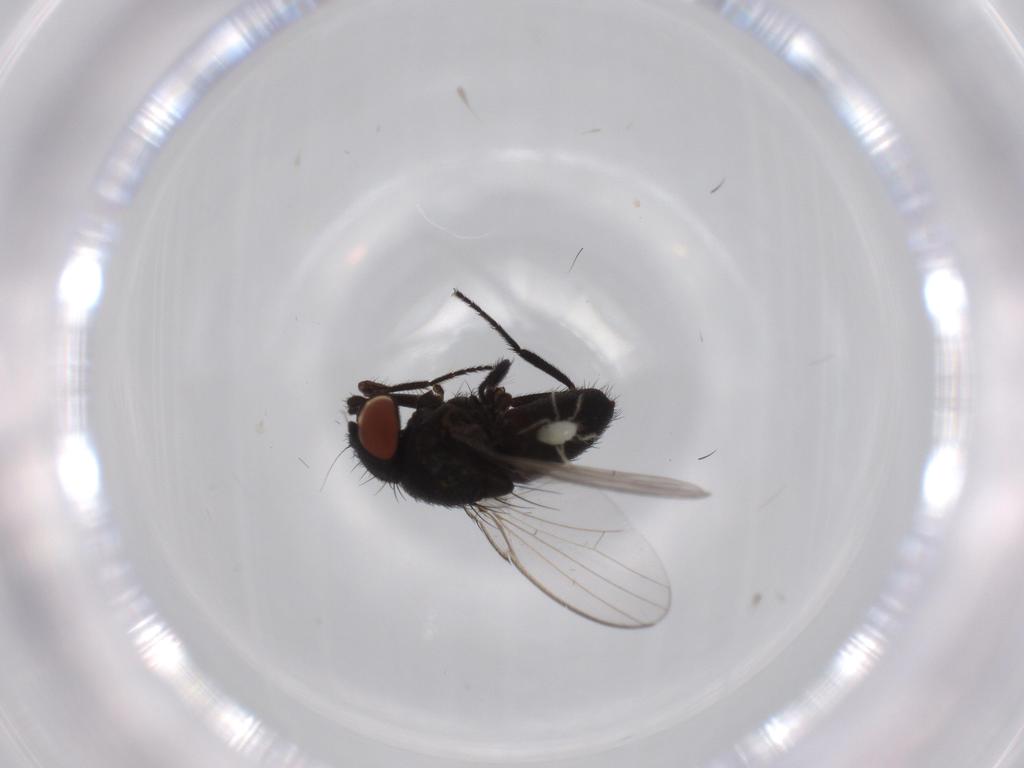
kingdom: Animalia
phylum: Arthropoda
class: Insecta
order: Diptera
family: Milichiidae
